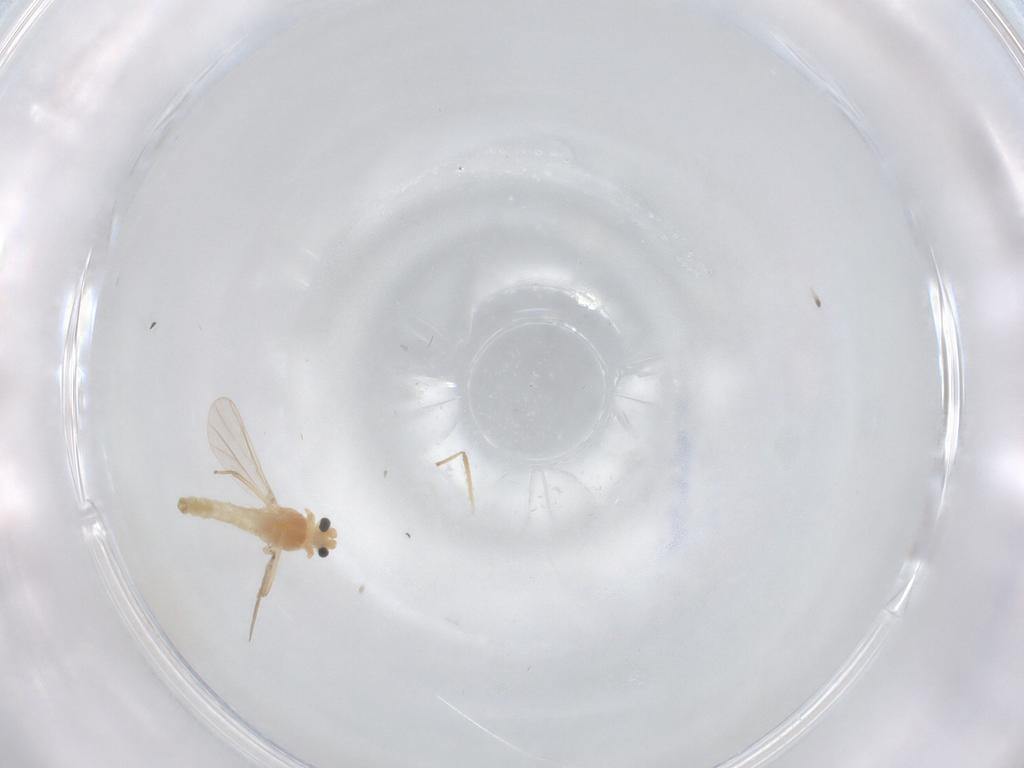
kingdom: Animalia
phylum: Arthropoda
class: Insecta
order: Diptera
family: Chironomidae
